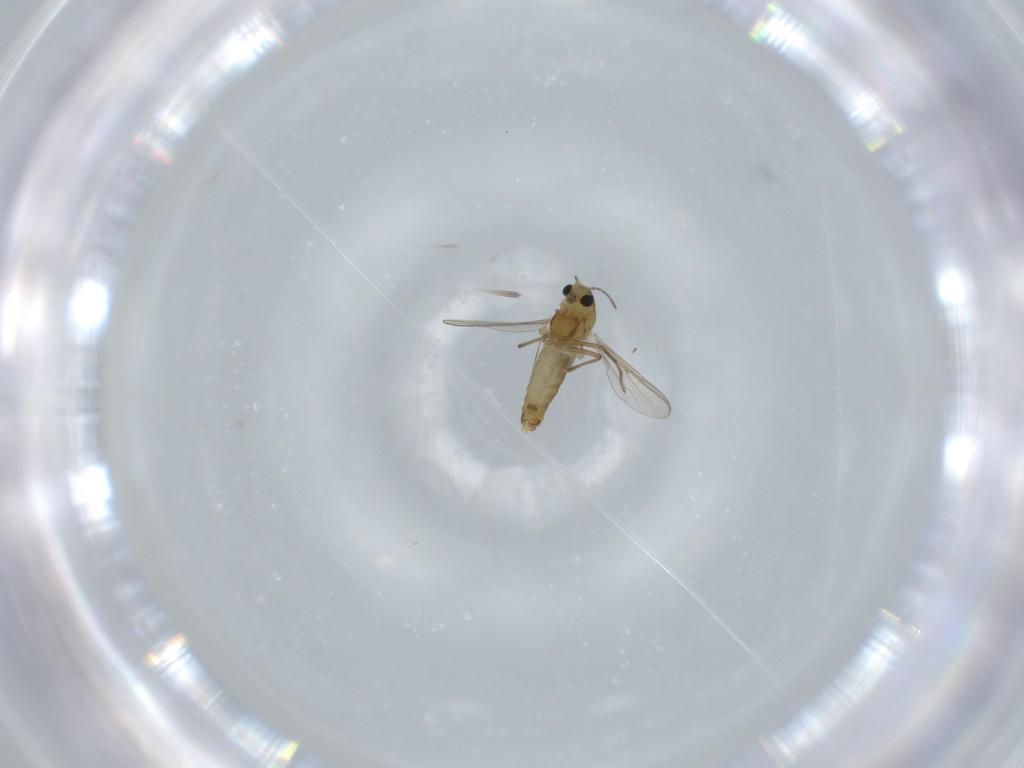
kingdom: Animalia
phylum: Arthropoda
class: Insecta
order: Diptera
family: Chironomidae
